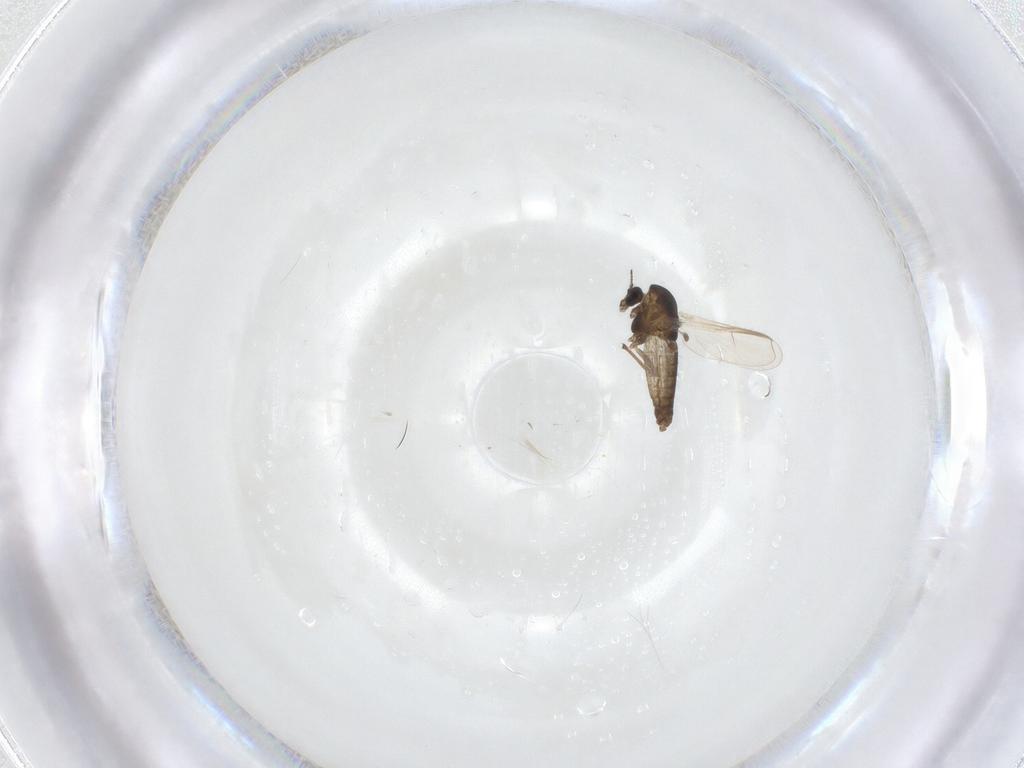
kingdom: Animalia
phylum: Arthropoda
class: Insecta
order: Diptera
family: Chironomidae
